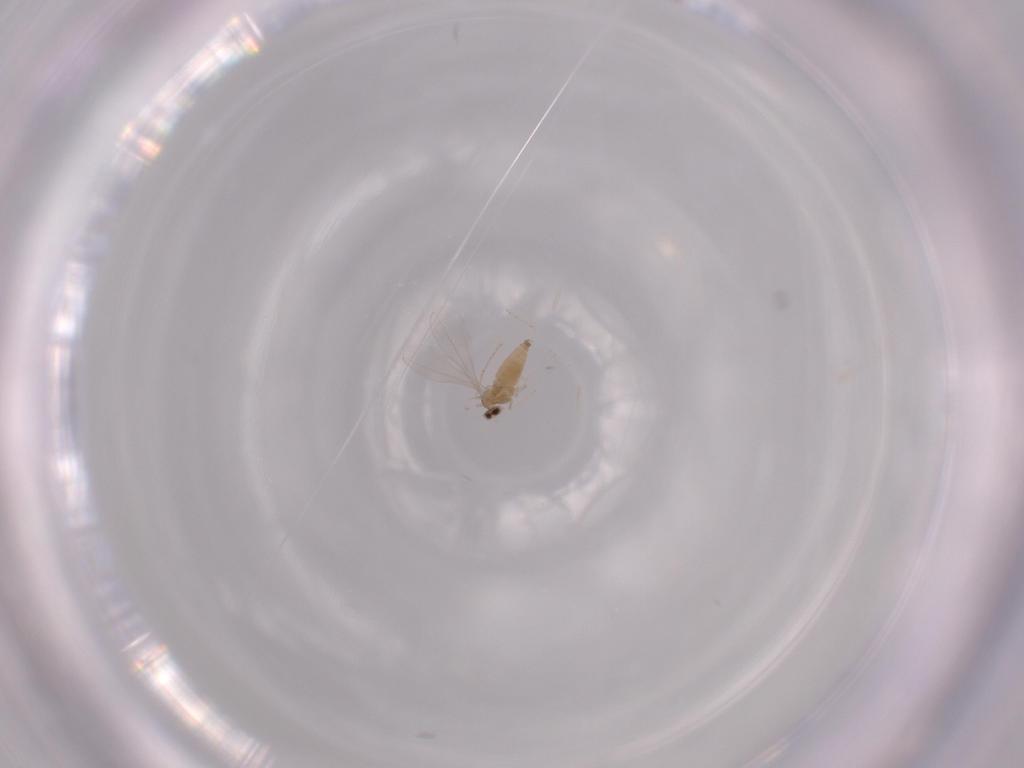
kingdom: Animalia
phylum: Arthropoda
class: Insecta
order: Diptera
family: Cecidomyiidae
